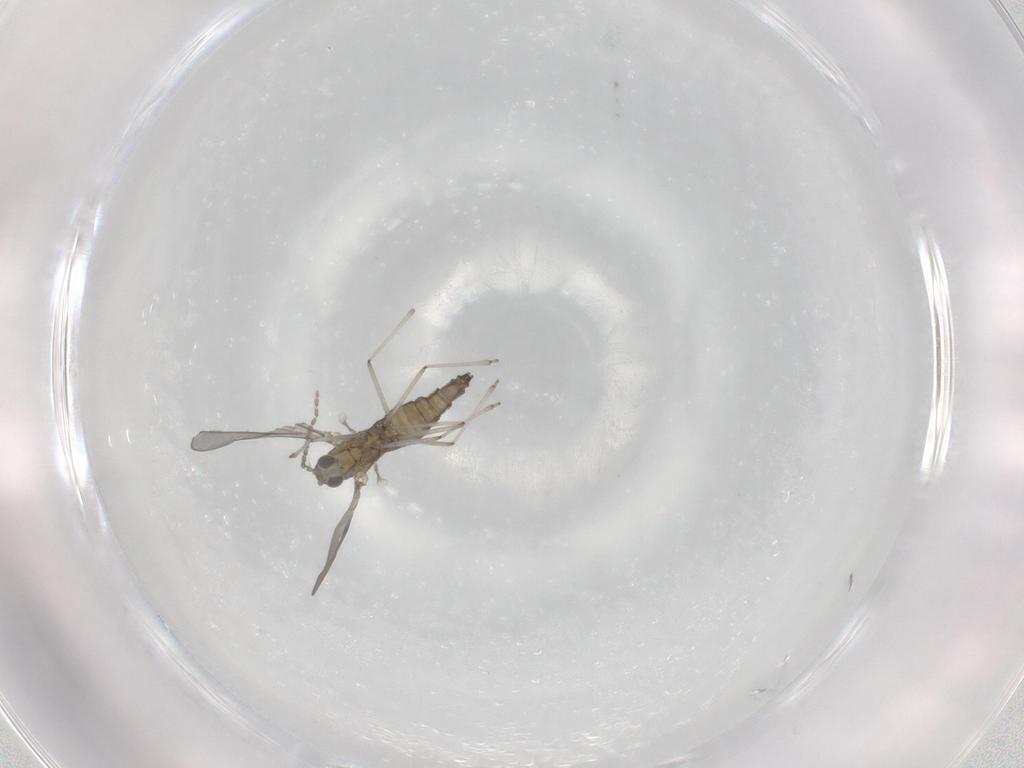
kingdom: Animalia
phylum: Arthropoda
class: Insecta
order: Diptera
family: Cecidomyiidae
